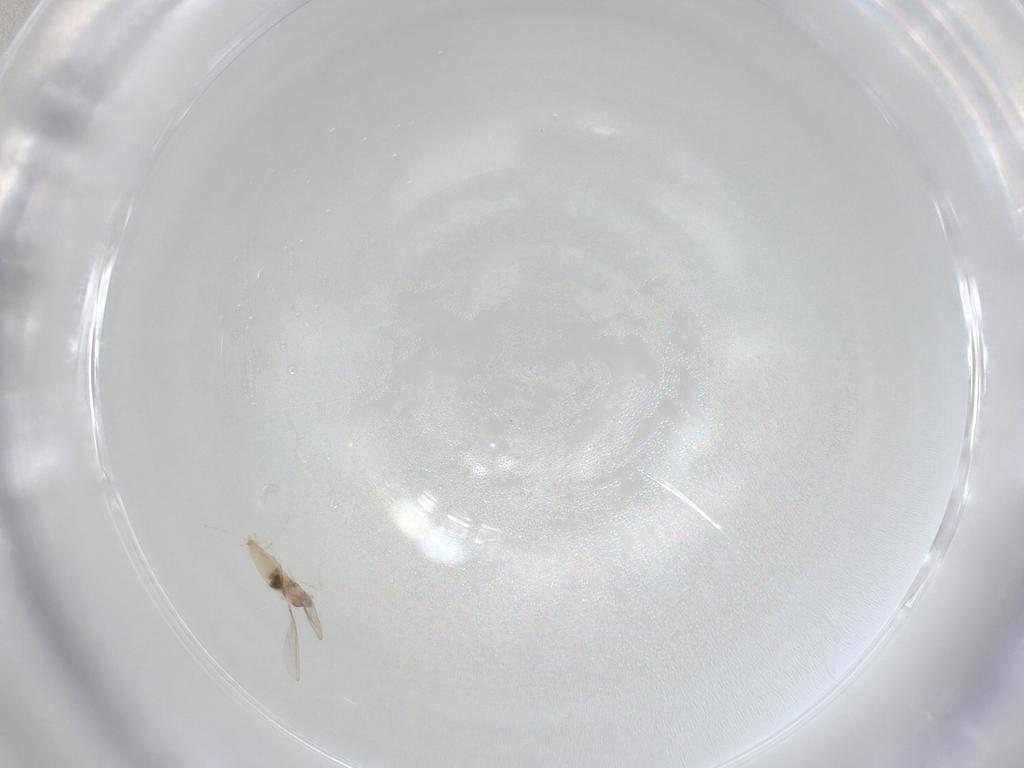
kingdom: Animalia
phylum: Arthropoda
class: Insecta
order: Diptera
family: Cecidomyiidae
